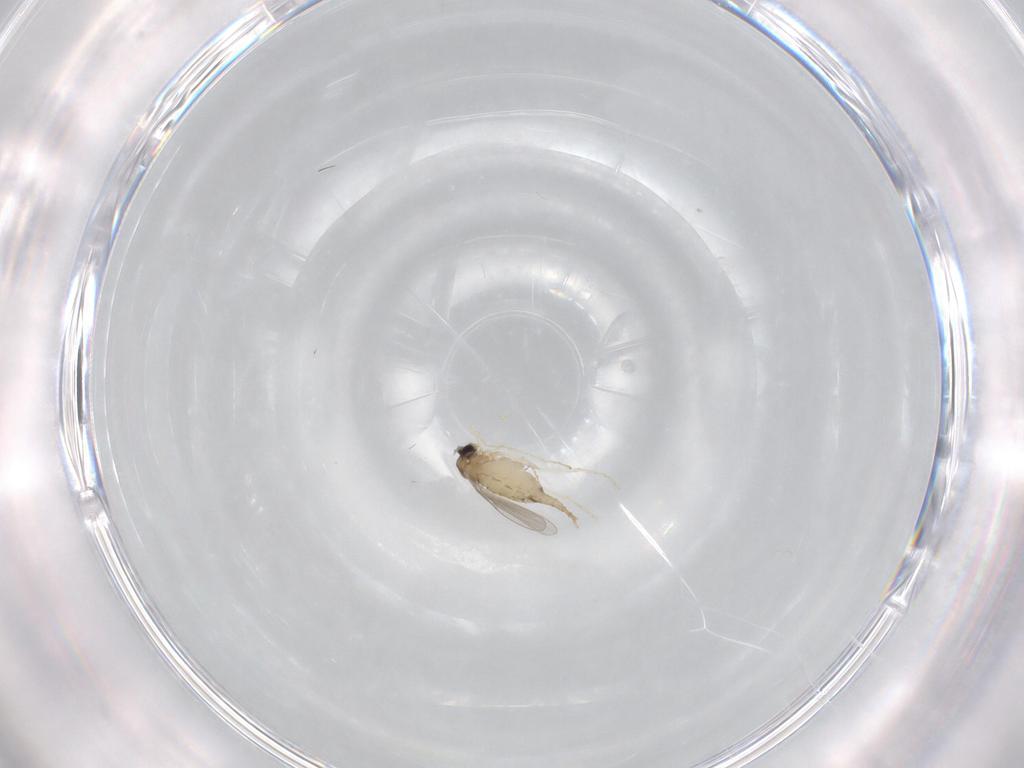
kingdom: Animalia
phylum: Arthropoda
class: Insecta
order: Diptera
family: Cecidomyiidae
